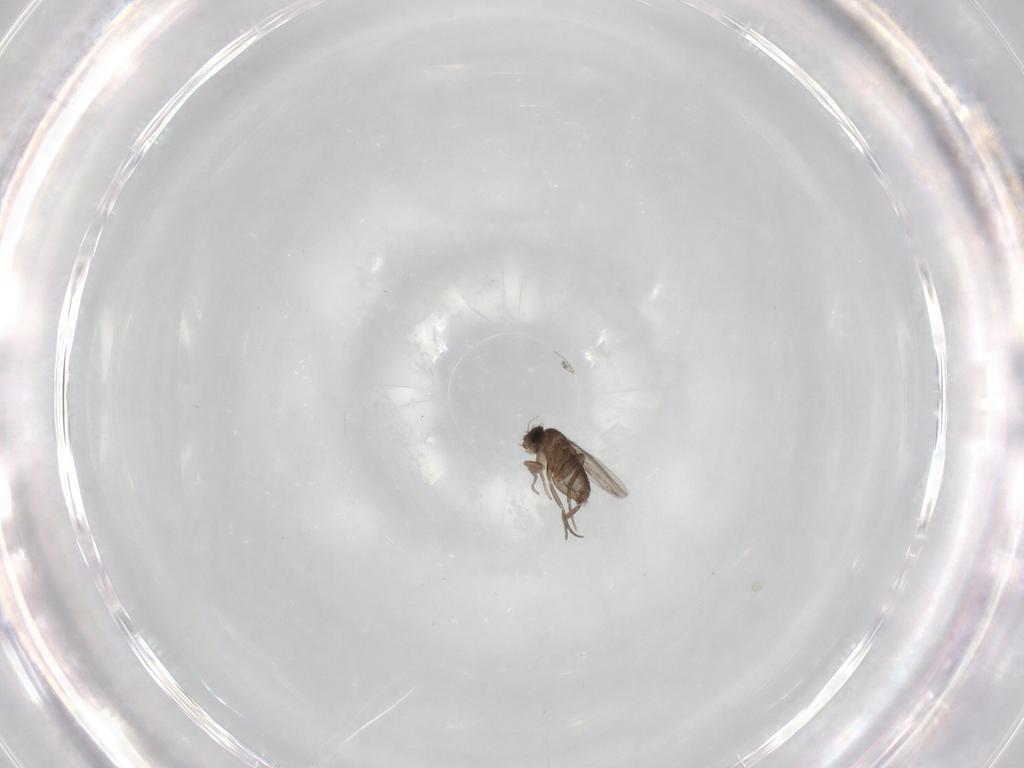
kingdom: Animalia
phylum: Arthropoda
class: Insecta
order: Diptera
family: Phoridae
